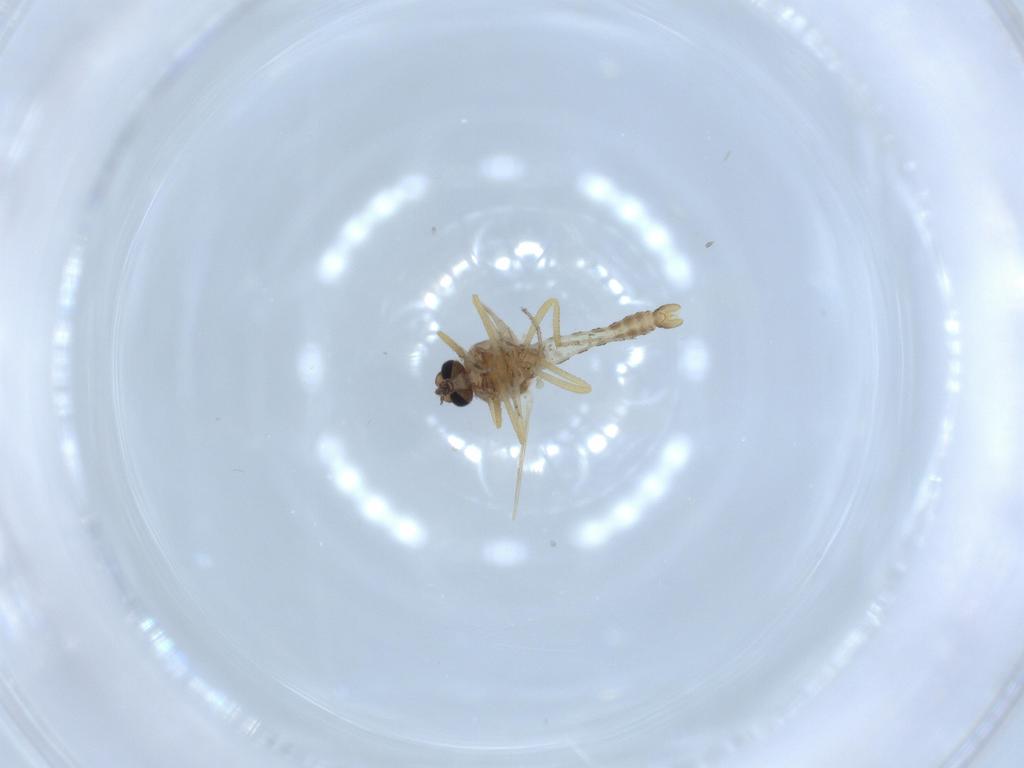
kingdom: Animalia
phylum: Arthropoda
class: Insecta
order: Diptera
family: Ceratopogonidae
